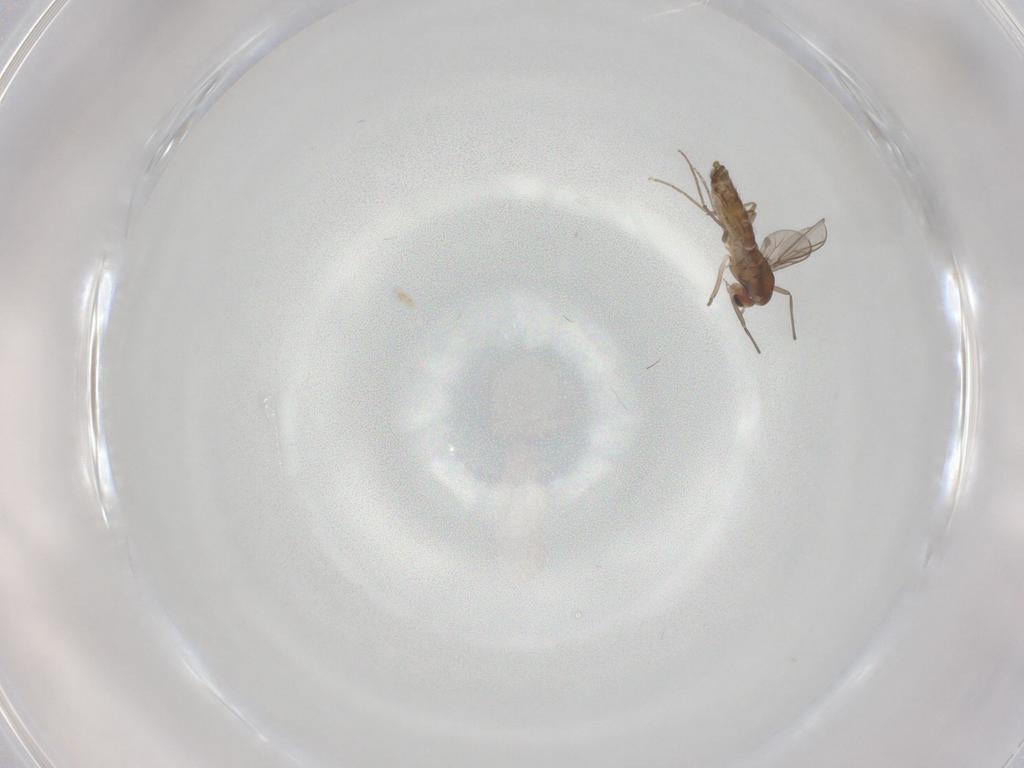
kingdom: Animalia
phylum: Arthropoda
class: Insecta
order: Diptera
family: Chironomidae
